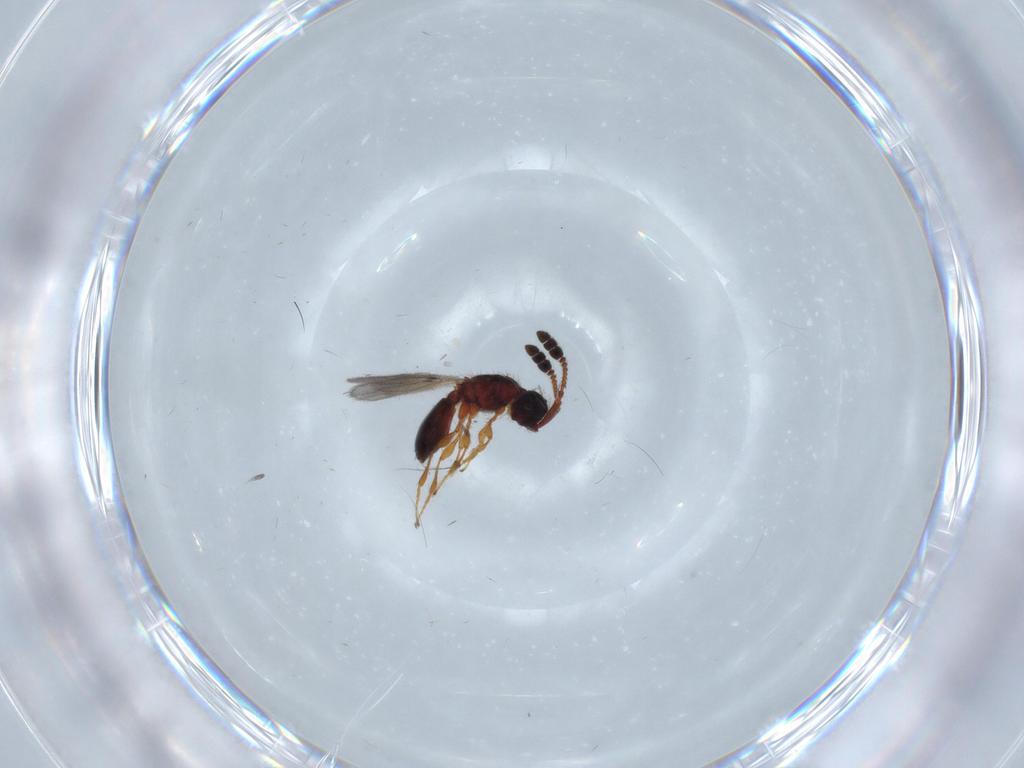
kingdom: Animalia
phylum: Arthropoda
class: Insecta
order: Hymenoptera
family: Diapriidae
